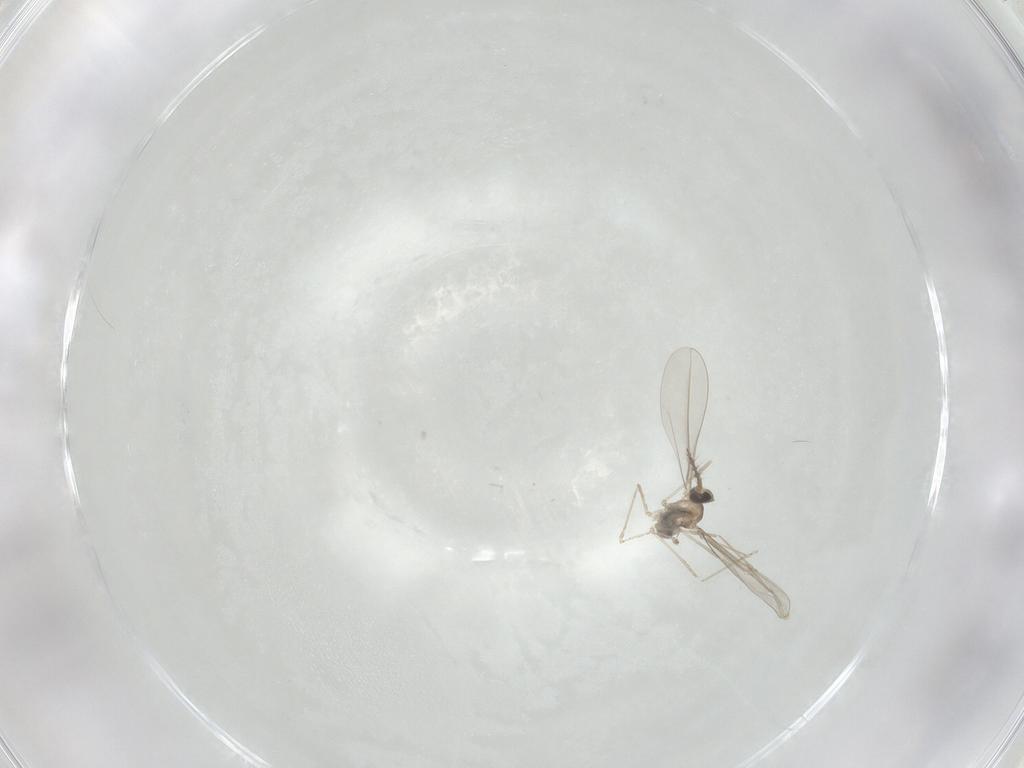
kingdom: Animalia
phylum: Arthropoda
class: Insecta
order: Diptera
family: Cecidomyiidae
